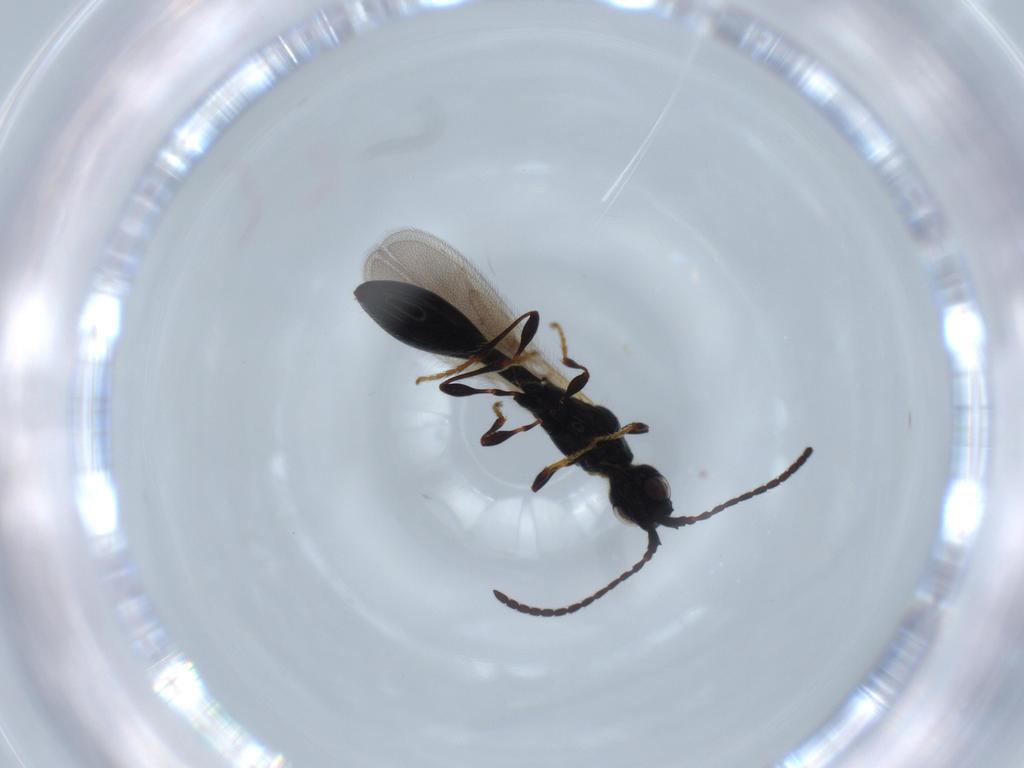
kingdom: Animalia
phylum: Arthropoda
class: Insecta
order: Hymenoptera
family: Diapriidae
